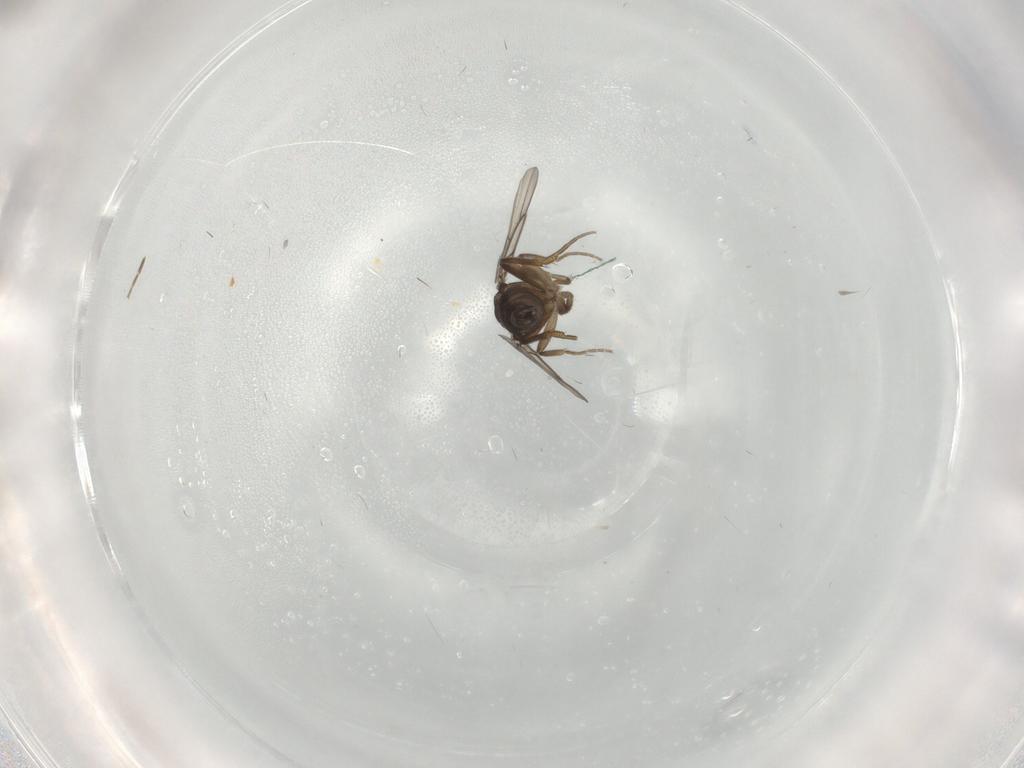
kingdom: Animalia
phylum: Arthropoda
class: Insecta
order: Diptera
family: Phoridae
